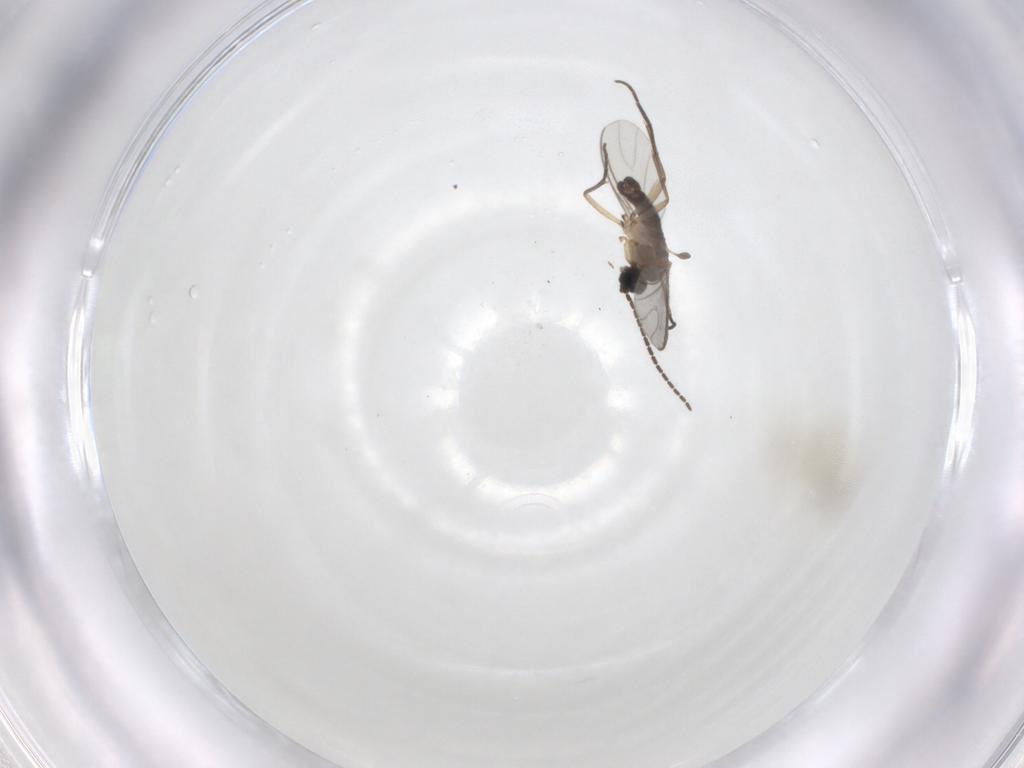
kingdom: Animalia
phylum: Arthropoda
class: Insecta
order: Diptera
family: Sciaridae
